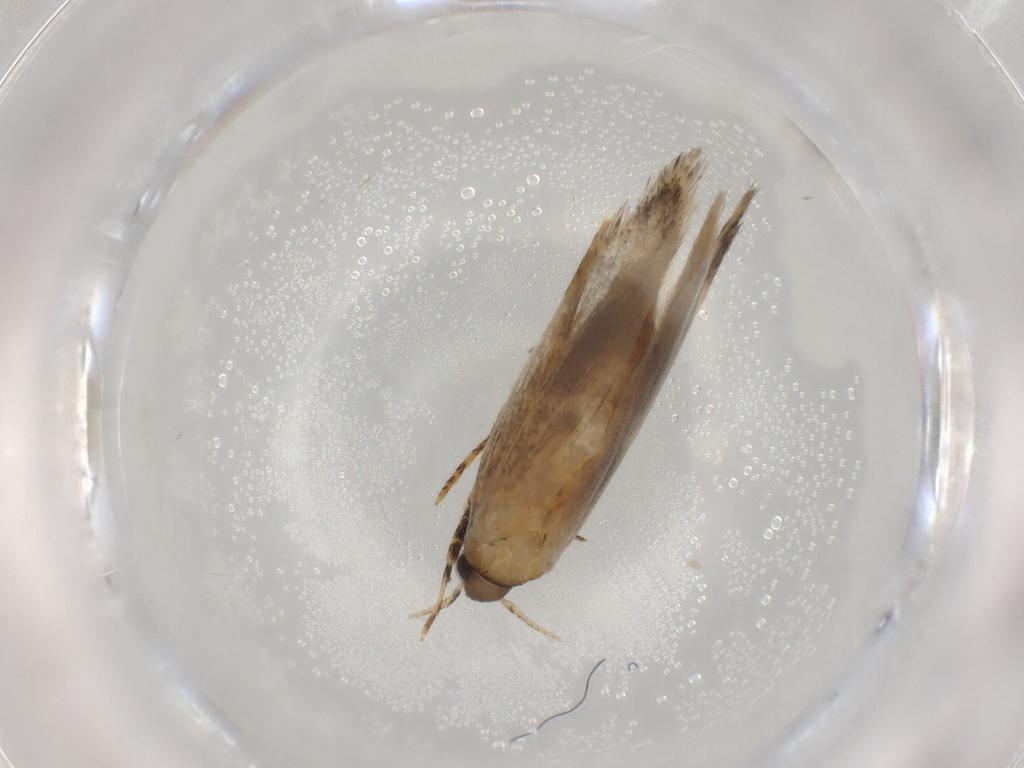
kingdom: Animalia
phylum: Arthropoda
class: Insecta
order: Lepidoptera
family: Autostichidae
